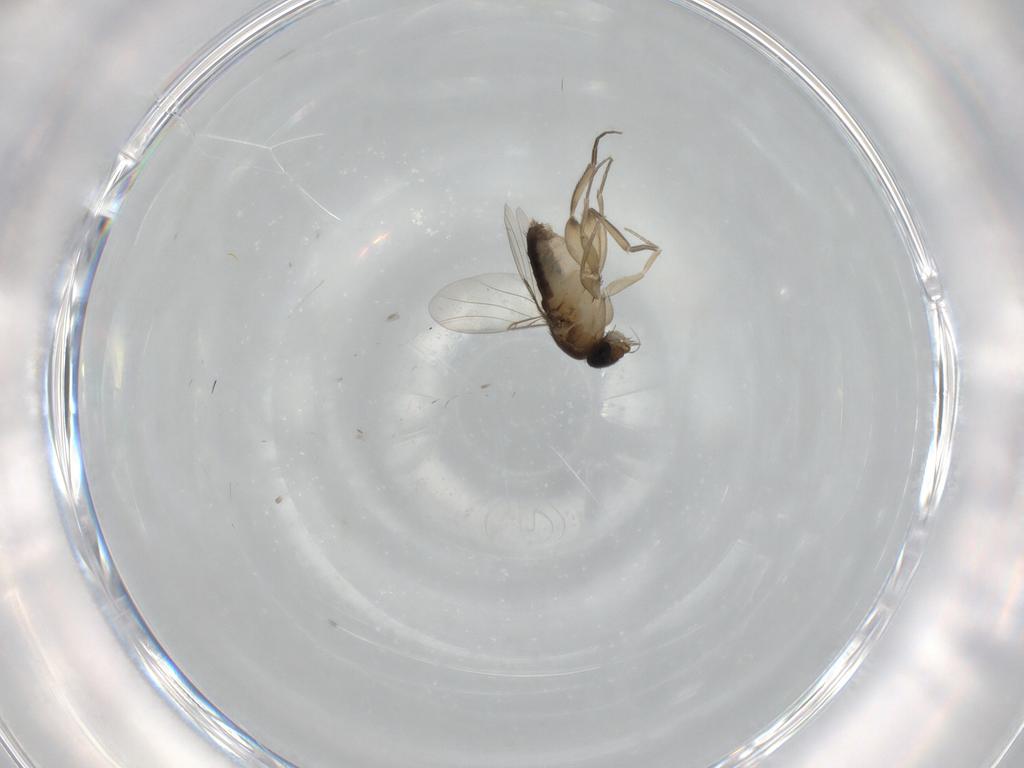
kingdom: Animalia
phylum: Arthropoda
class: Insecta
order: Diptera
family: Phoridae
